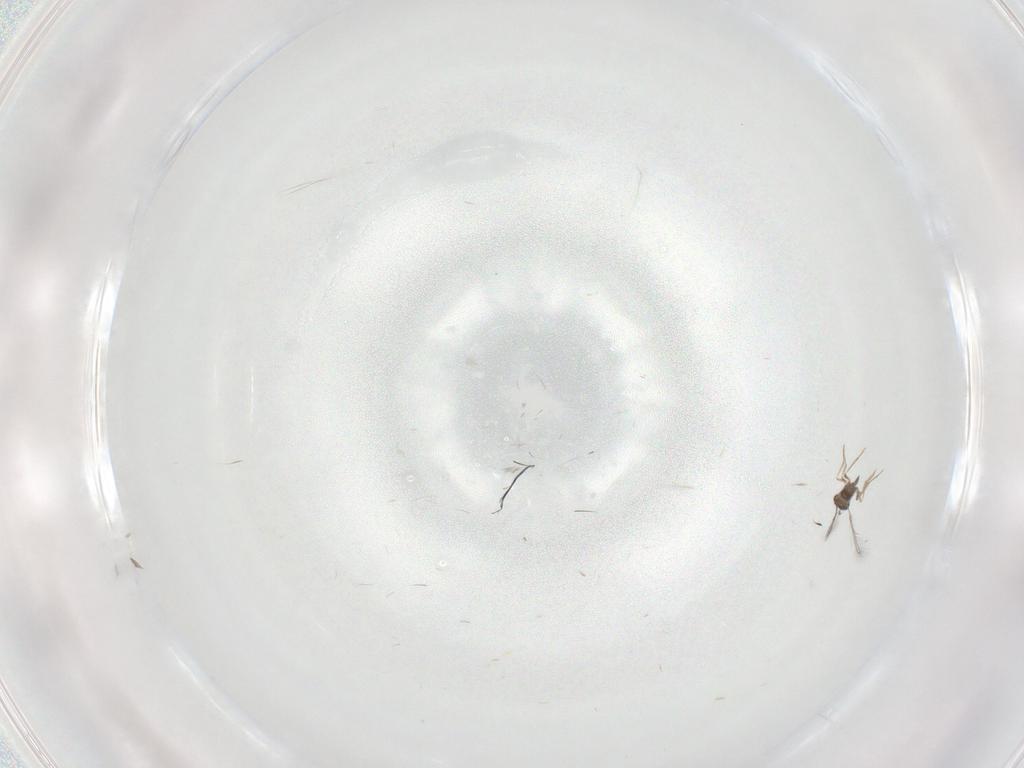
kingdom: Animalia
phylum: Arthropoda
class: Insecta
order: Hymenoptera
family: Mymaridae
